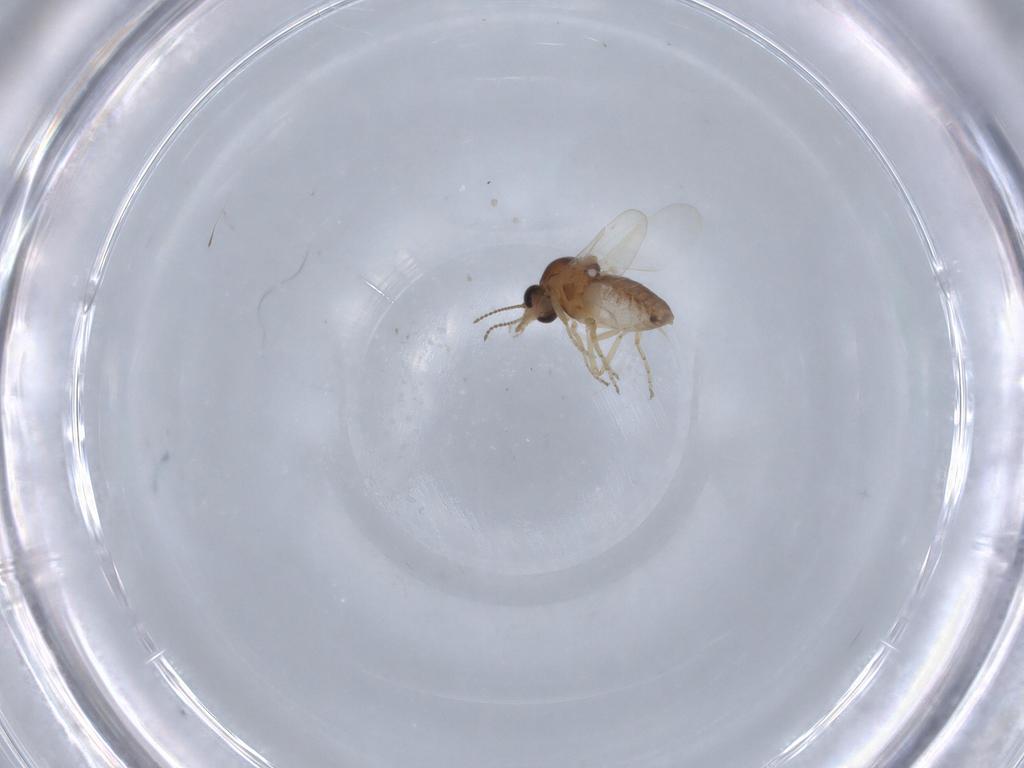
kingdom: Animalia
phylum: Arthropoda
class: Insecta
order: Diptera
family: Ceratopogonidae
